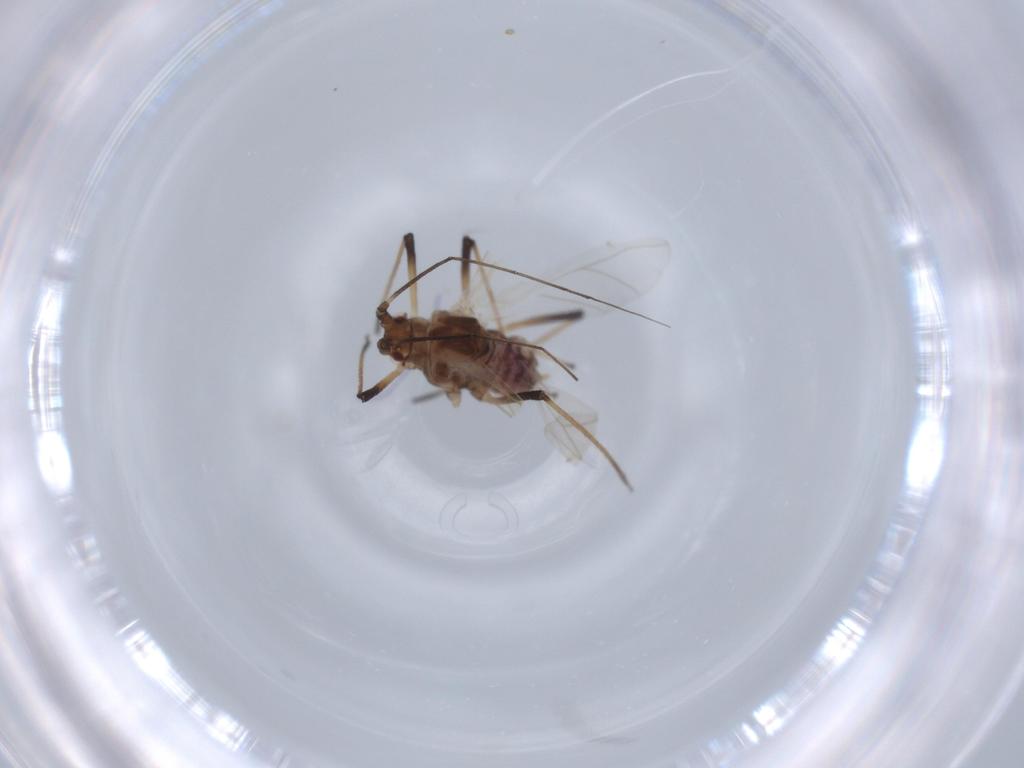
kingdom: Animalia
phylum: Arthropoda
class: Insecta
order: Hemiptera
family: Aphididae
